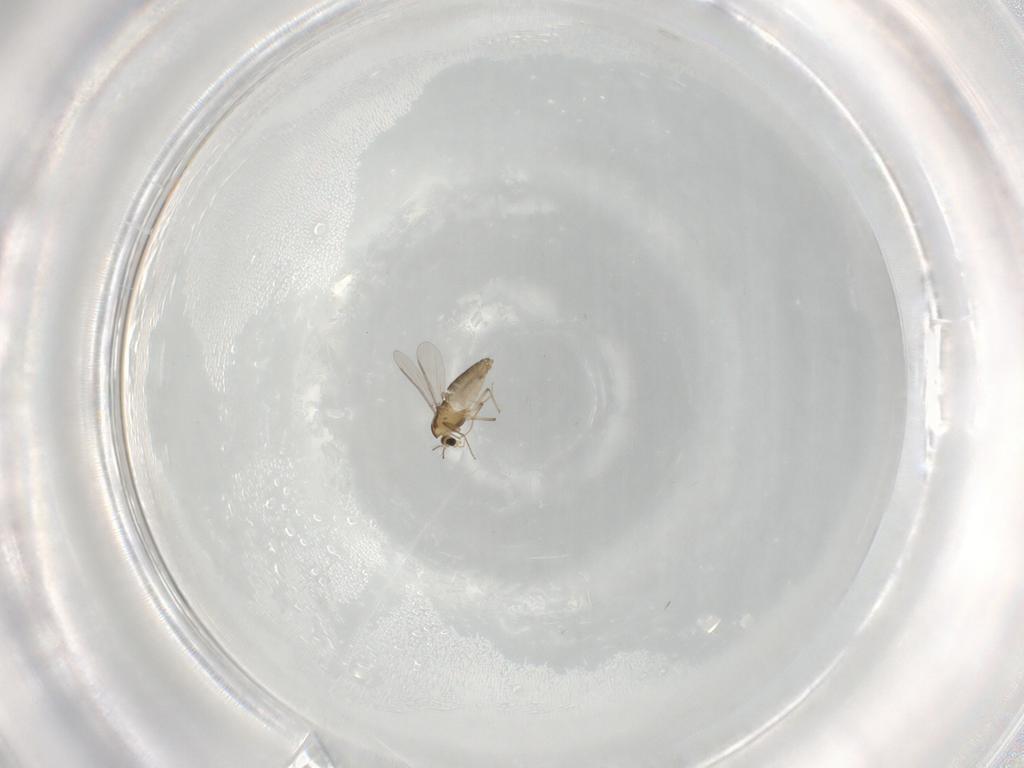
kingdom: Animalia
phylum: Arthropoda
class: Insecta
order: Diptera
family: Chironomidae
